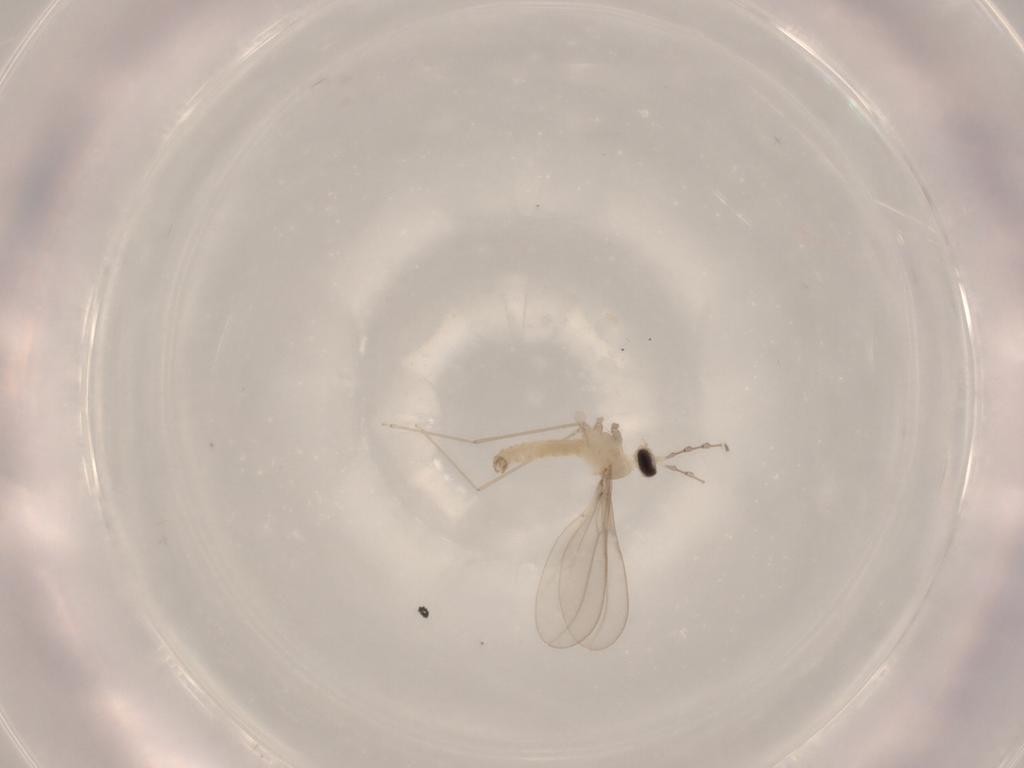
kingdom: Animalia
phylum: Arthropoda
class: Insecta
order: Diptera
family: Cecidomyiidae
